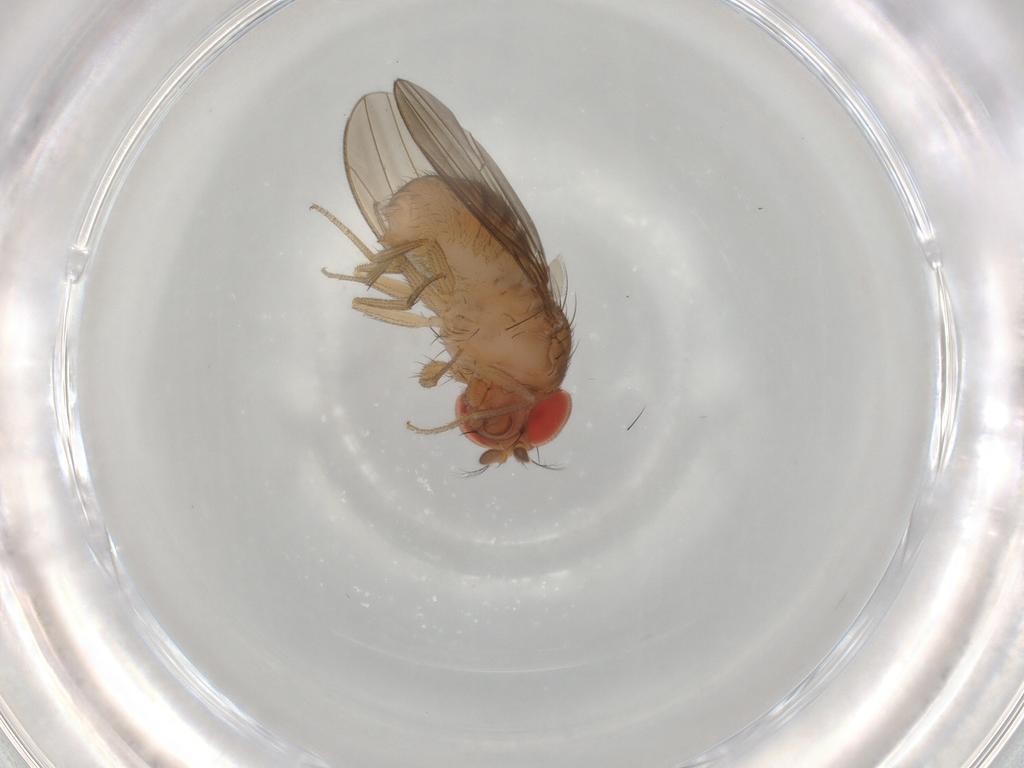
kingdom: Animalia
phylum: Arthropoda
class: Insecta
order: Diptera
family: Drosophilidae
